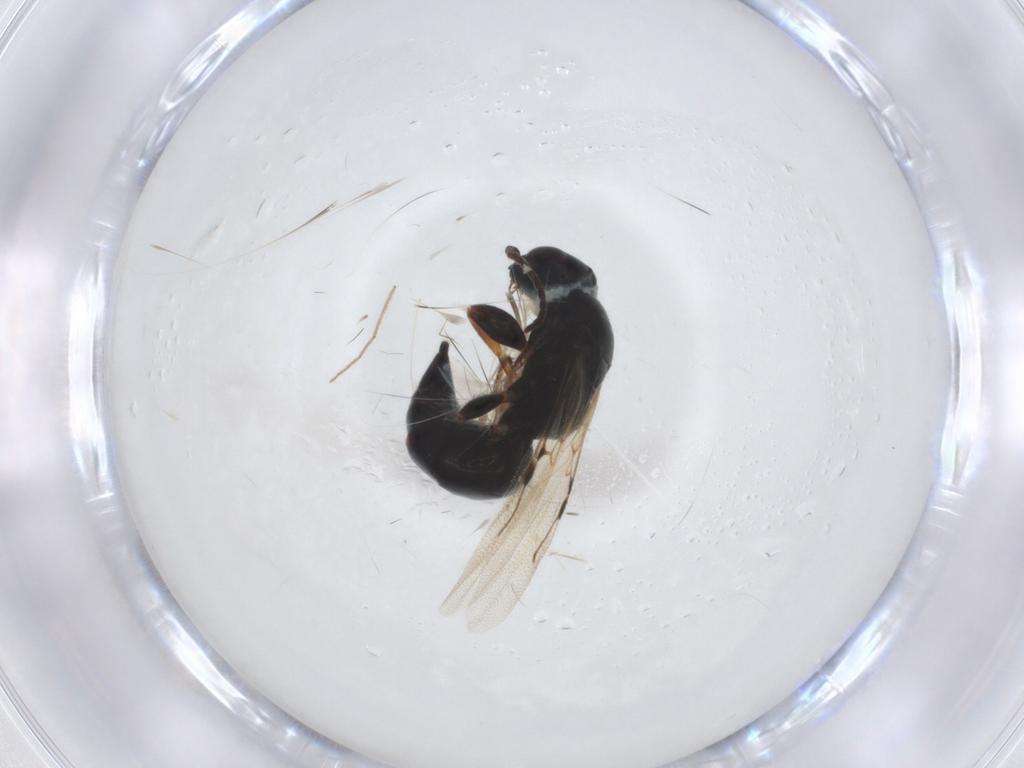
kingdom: Animalia
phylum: Arthropoda
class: Insecta
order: Hymenoptera
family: Bethylidae
